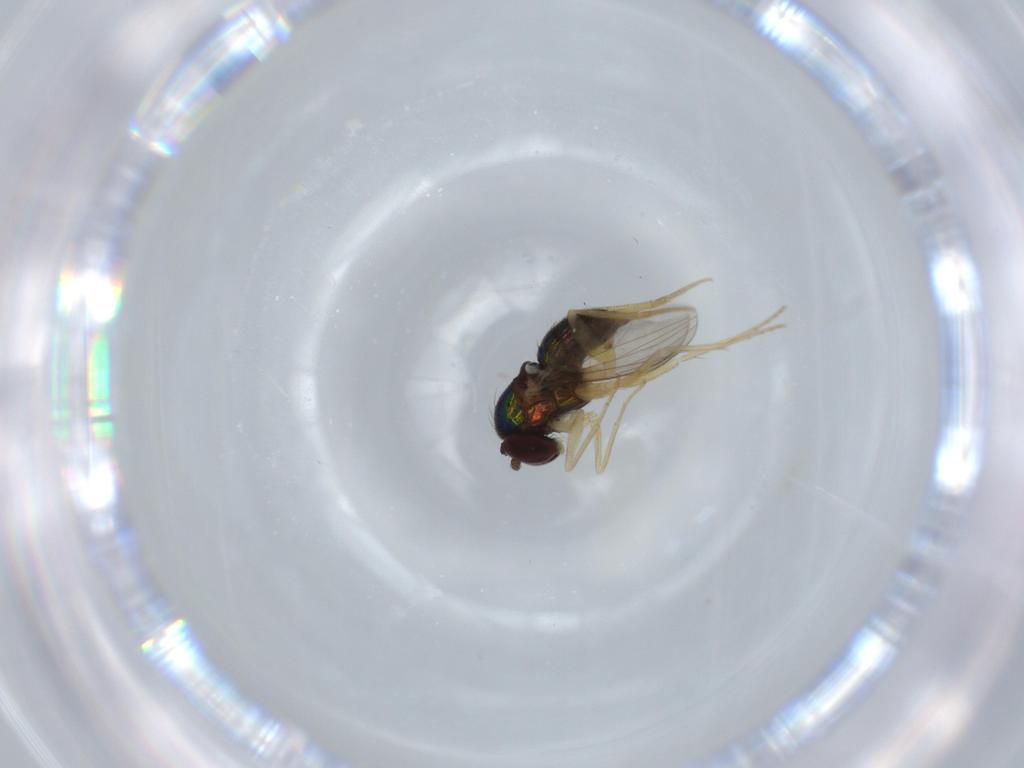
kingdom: Animalia
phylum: Arthropoda
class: Insecta
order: Diptera
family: Dolichopodidae
